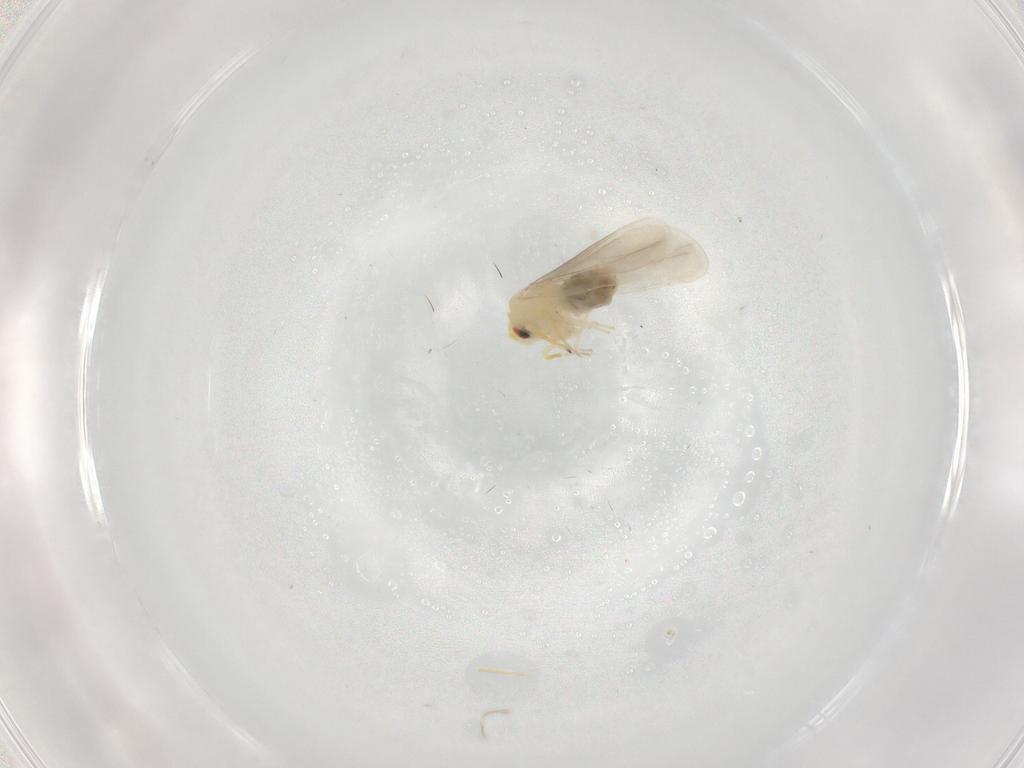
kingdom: Animalia
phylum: Arthropoda
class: Insecta
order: Hemiptera
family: Aleyrodidae
